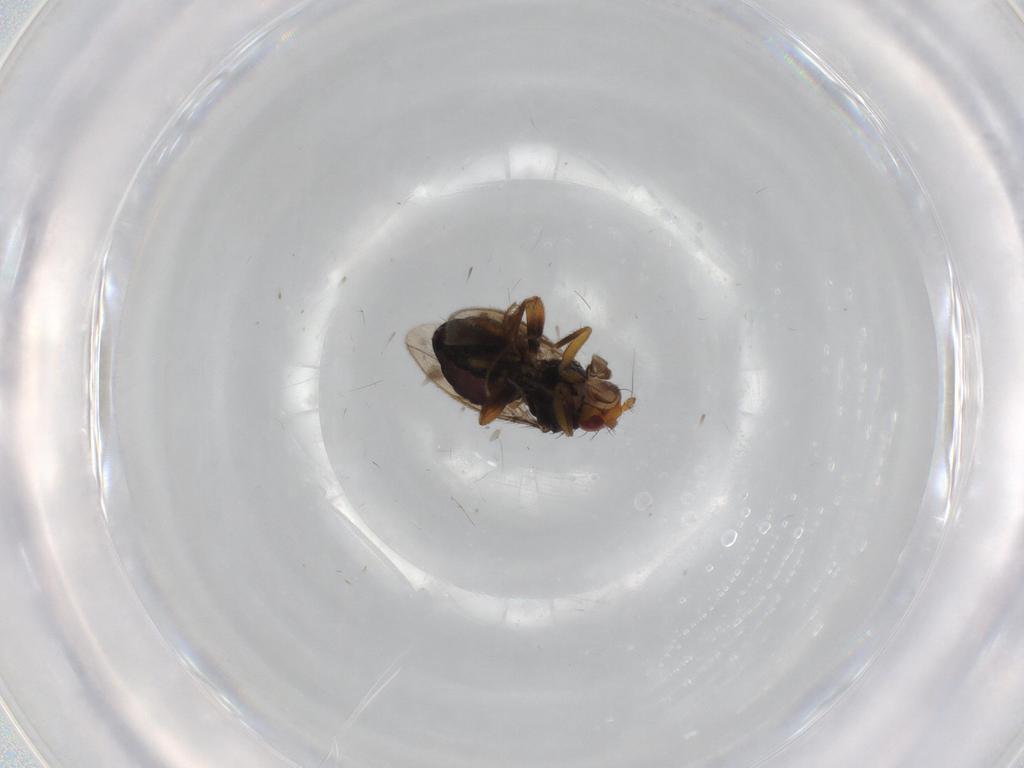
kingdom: Animalia
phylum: Arthropoda
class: Insecta
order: Diptera
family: Sphaeroceridae
